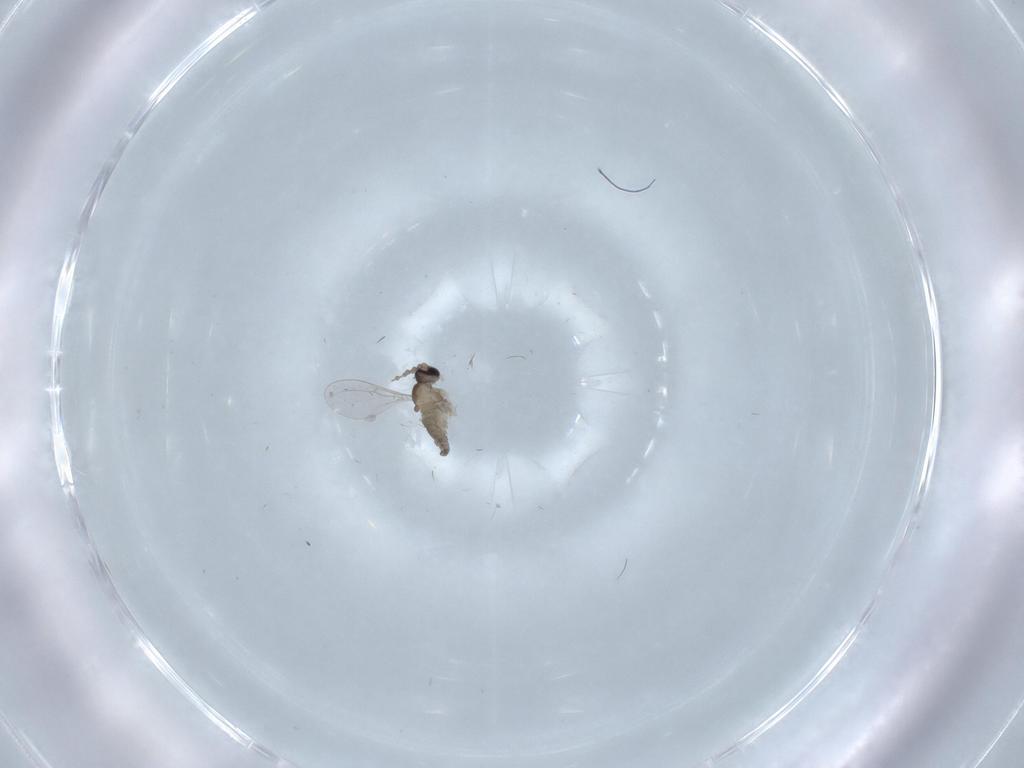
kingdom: Animalia
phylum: Arthropoda
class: Insecta
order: Diptera
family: Cecidomyiidae
